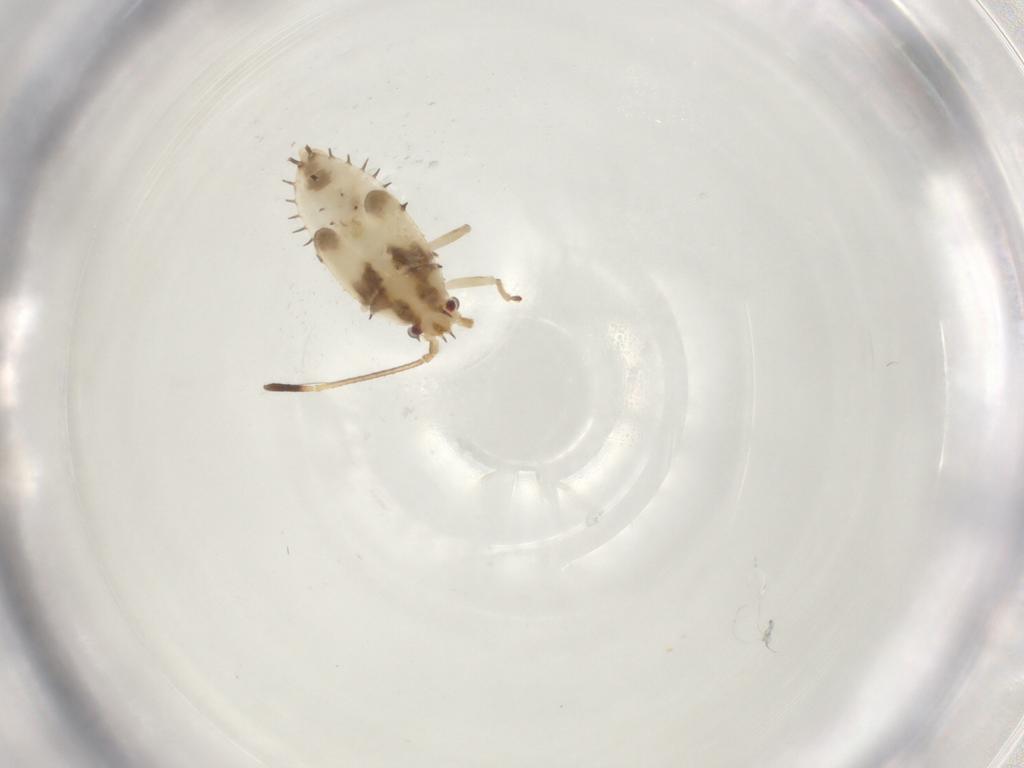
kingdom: Animalia
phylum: Arthropoda
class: Insecta
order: Hemiptera
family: Tingidae
